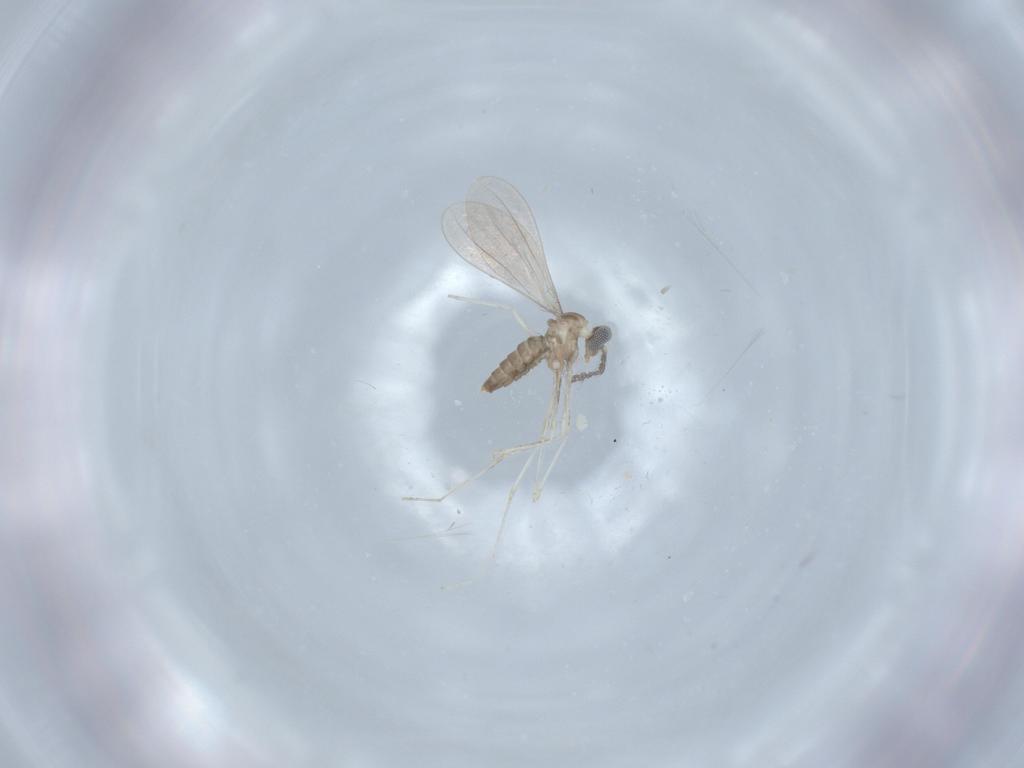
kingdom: Animalia
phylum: Arthropoda
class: Insecta
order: Diptera
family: Cecidomyiidae
